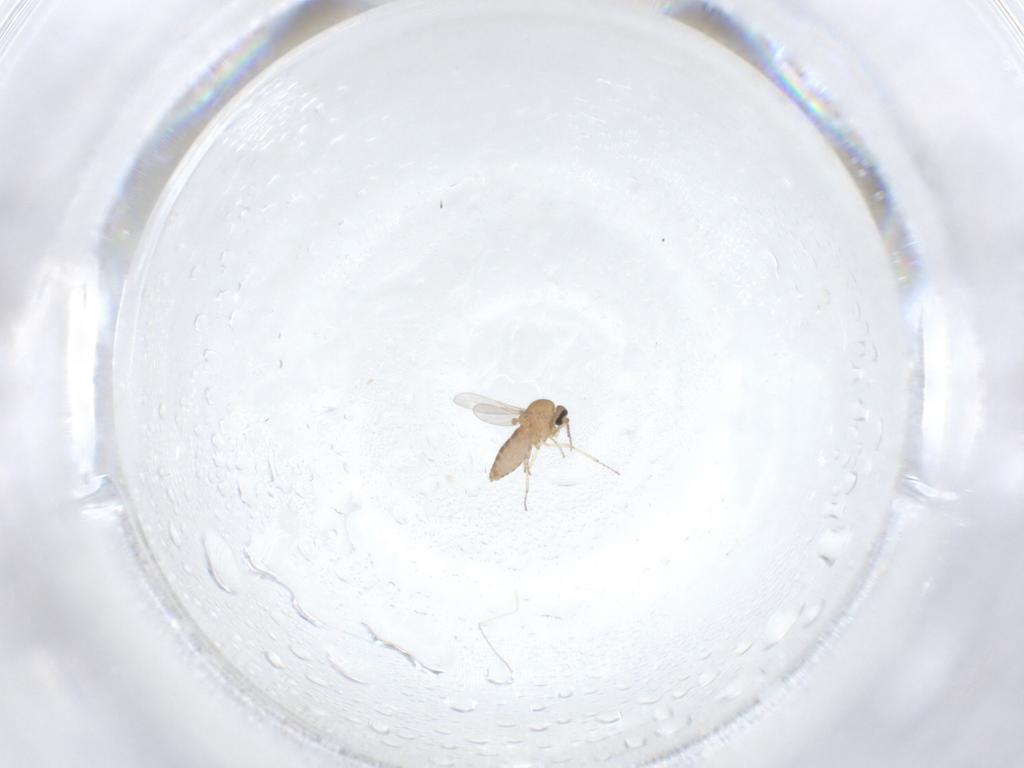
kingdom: Animalia
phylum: Arthropoda
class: Insecta
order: Diptera
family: Ceratopogonidae
